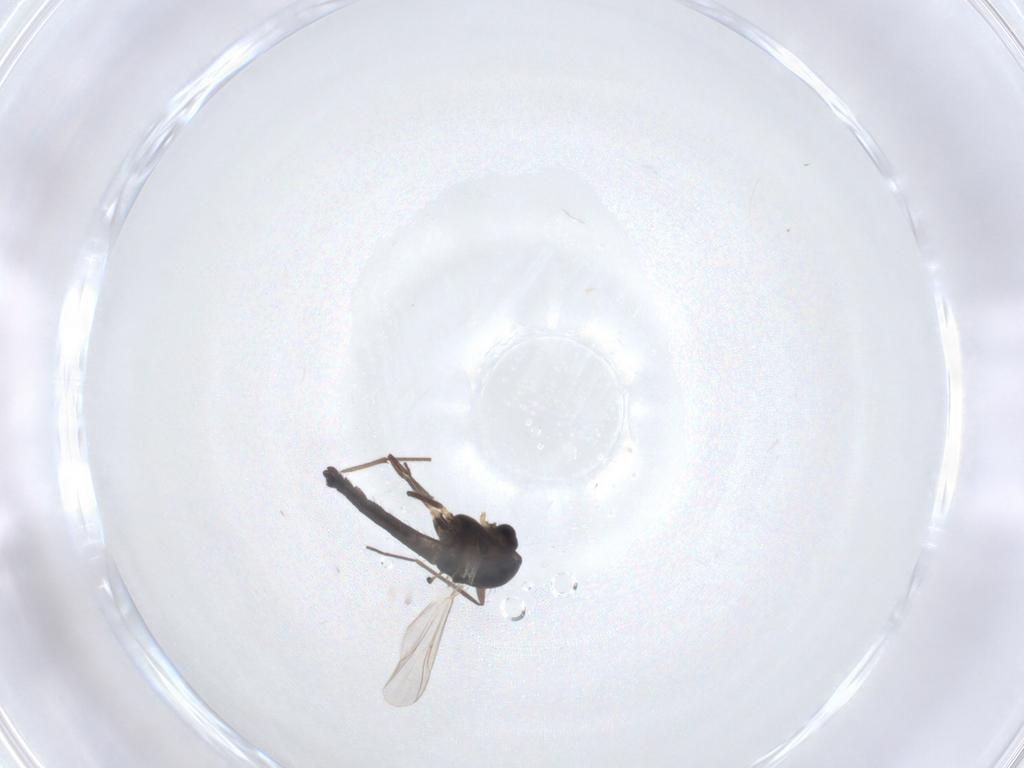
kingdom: Animalia
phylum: Arthropoda
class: Insecta
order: Diptera
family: Chironomidae
